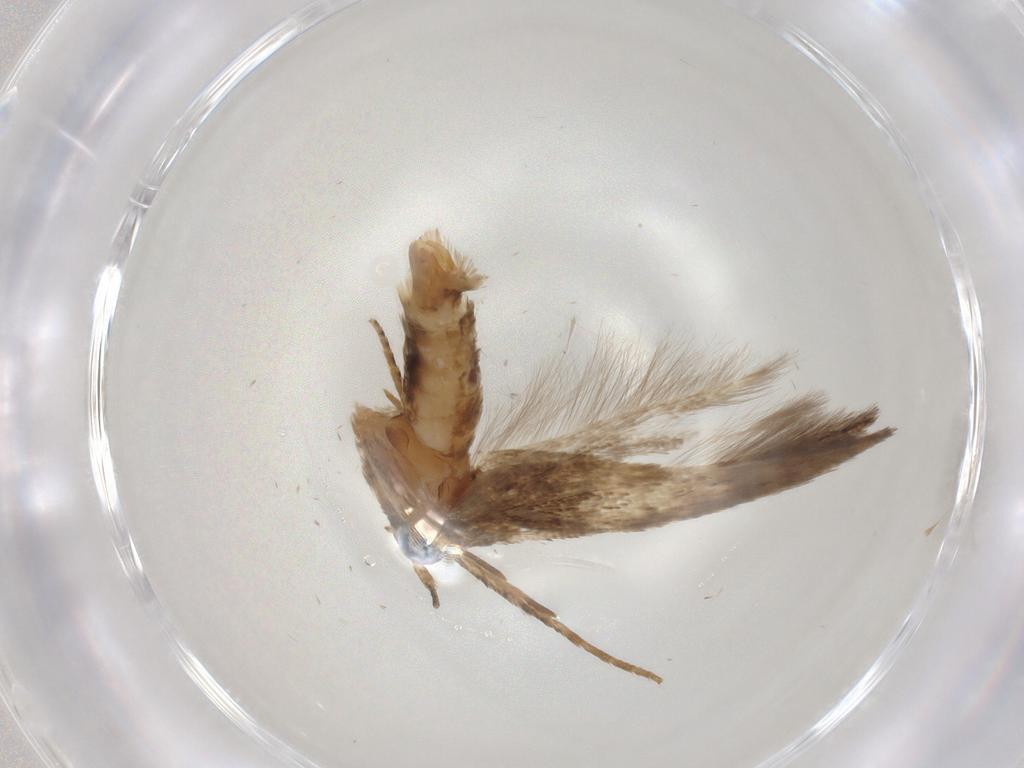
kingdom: Animalia
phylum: Arthropoda
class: Insecta
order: Lepidoptera
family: Cosmopterigidae
